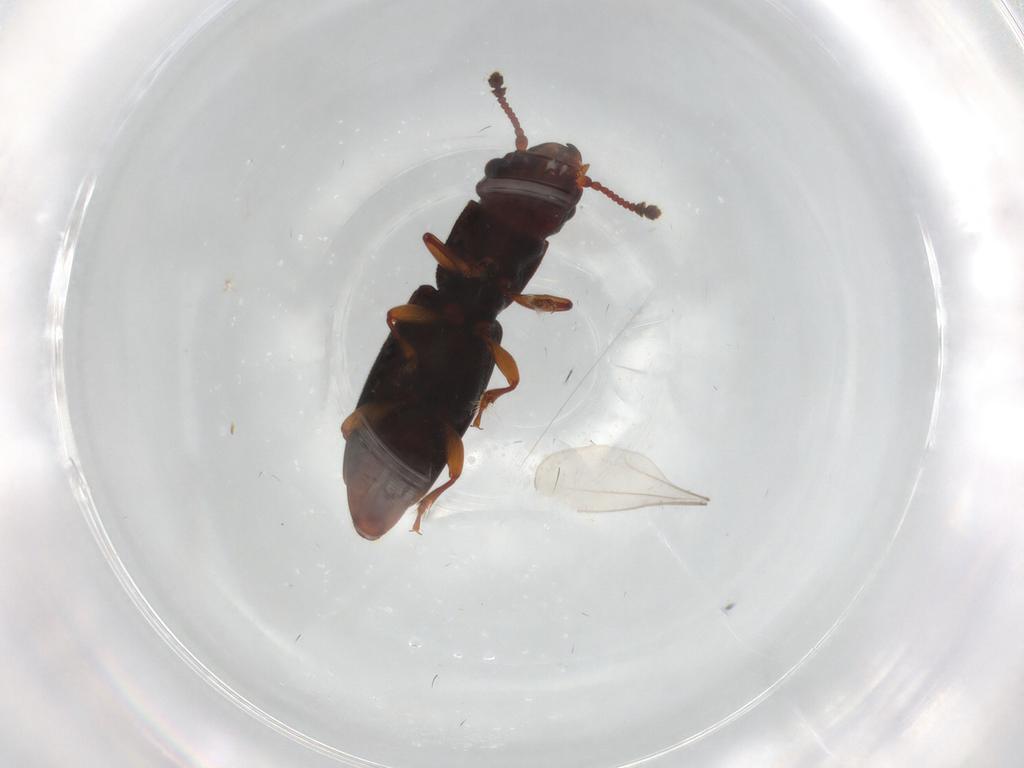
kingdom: Animalia
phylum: Arthropoda
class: Insecta
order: Coleoptera
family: Monotomidae
